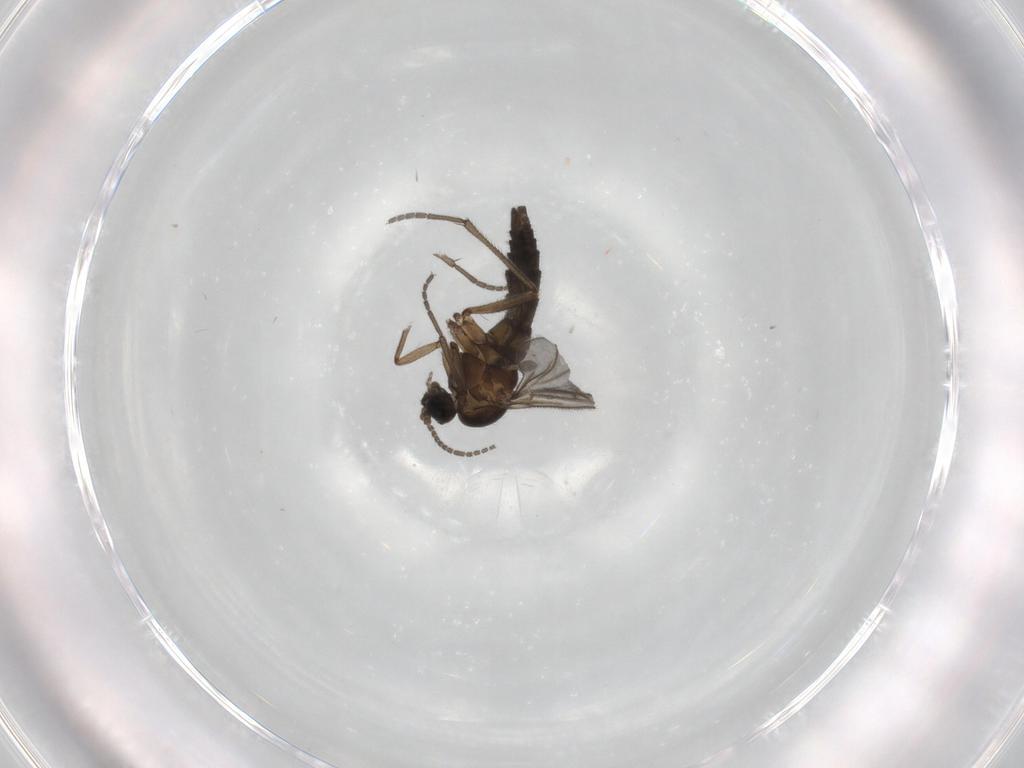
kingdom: Animalia
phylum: Arthropoda
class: Insecta
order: Diptera
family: Sciaridae
